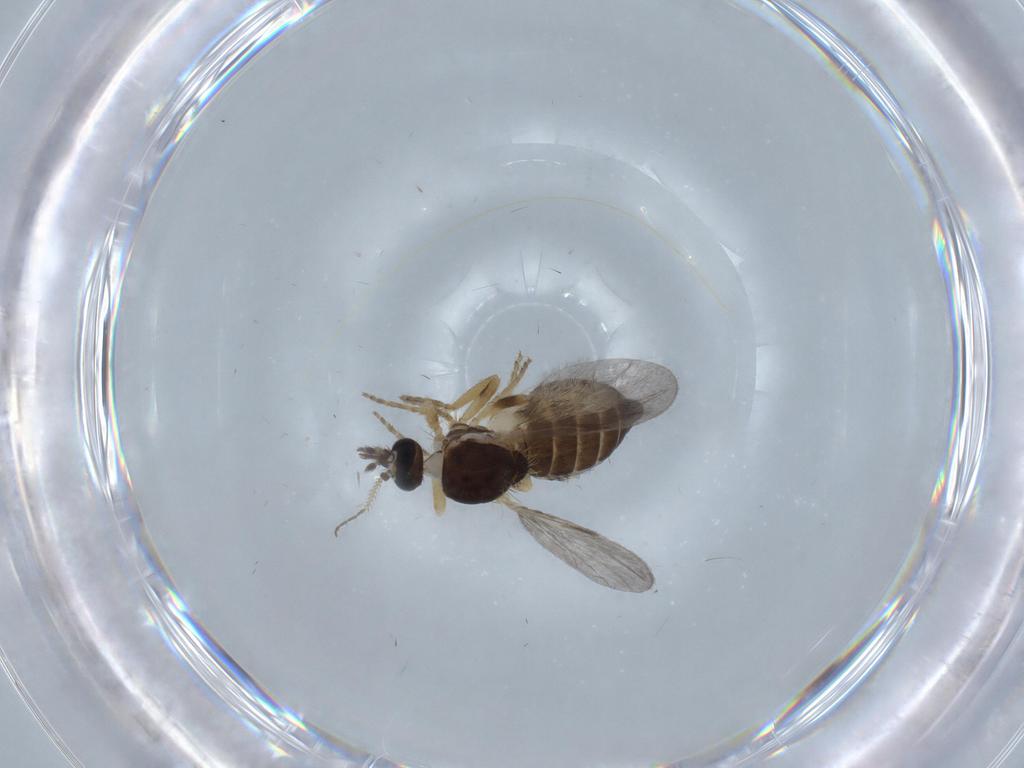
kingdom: Animalia
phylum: Arthropoda
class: Insecta
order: Diptera
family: Ceratopogonidae
